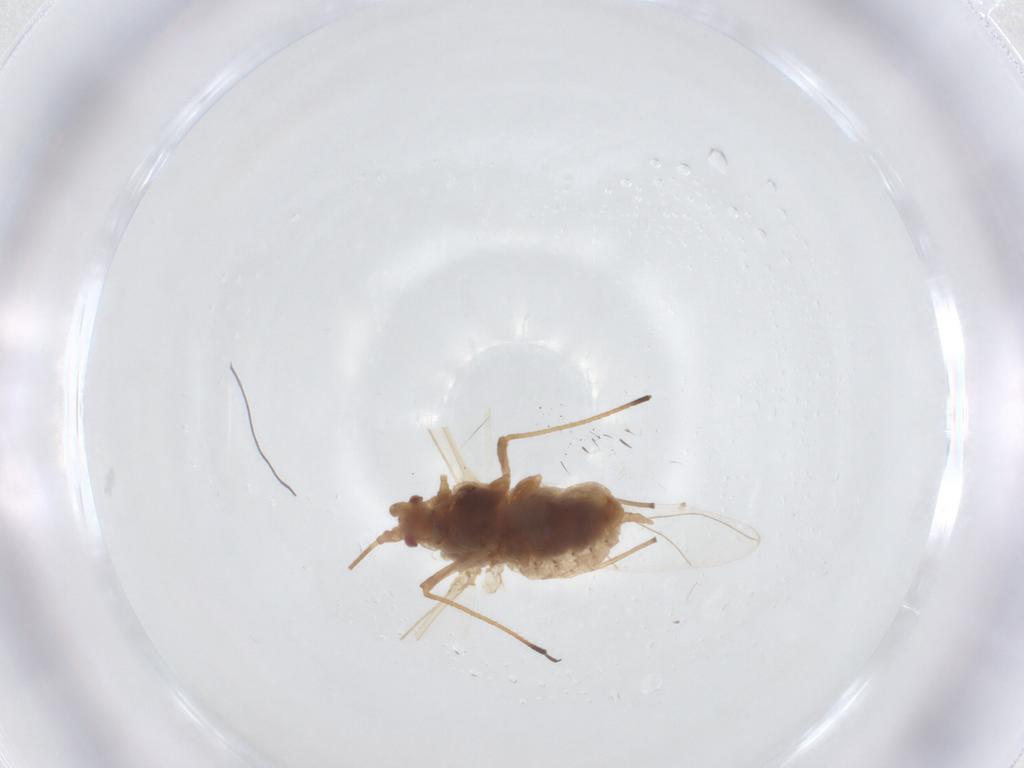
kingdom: Animalia
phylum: Arthropoda
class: Insecta
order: Hemiptera
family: Aphididae
